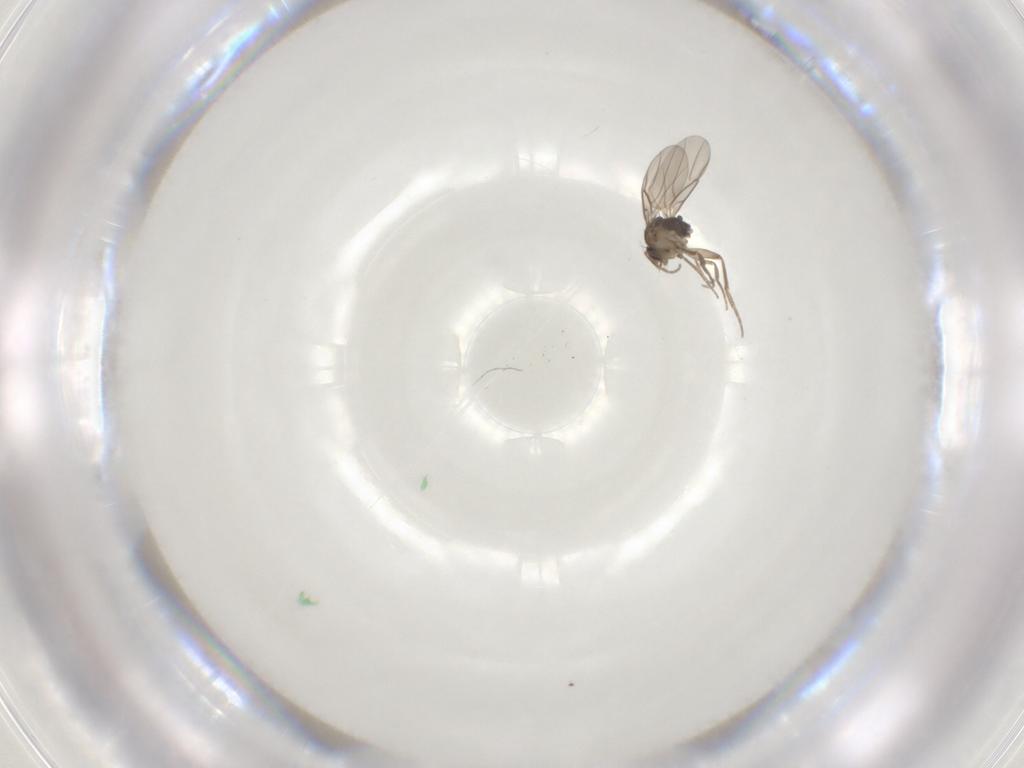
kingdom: Animalia
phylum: Arthropoda
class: Insecta
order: Diptera
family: Phoridae
